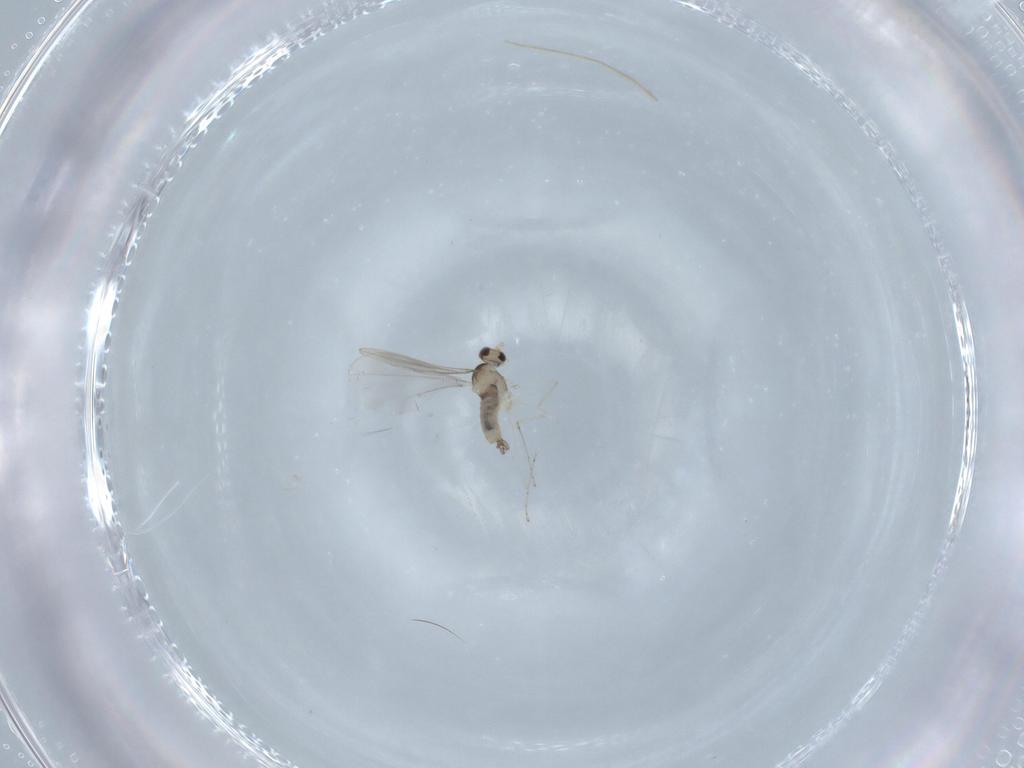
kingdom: Animalia
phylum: Arthropoda
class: Insecta
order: Diptera
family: Cecidomyiidae
